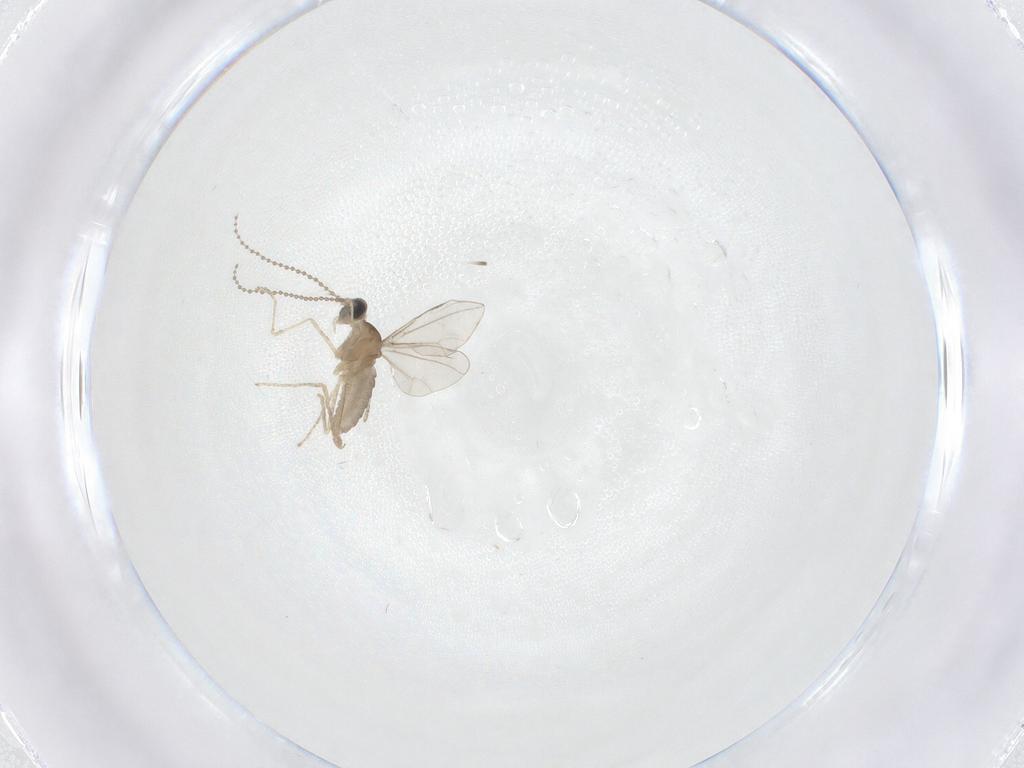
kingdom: Animalia
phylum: Arthropoda
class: Insecta
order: Diptera
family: Cecidomyiidae
